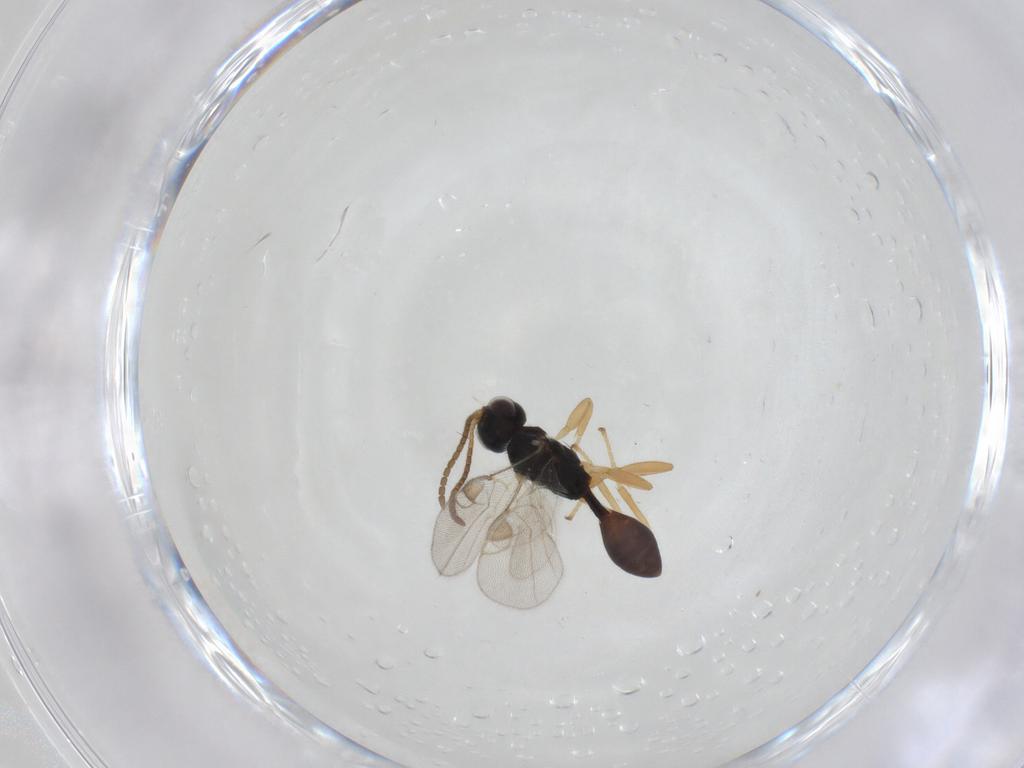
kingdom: Animalia
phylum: Arthropoda
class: Insecta
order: Hymenoptera
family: Braconidae
